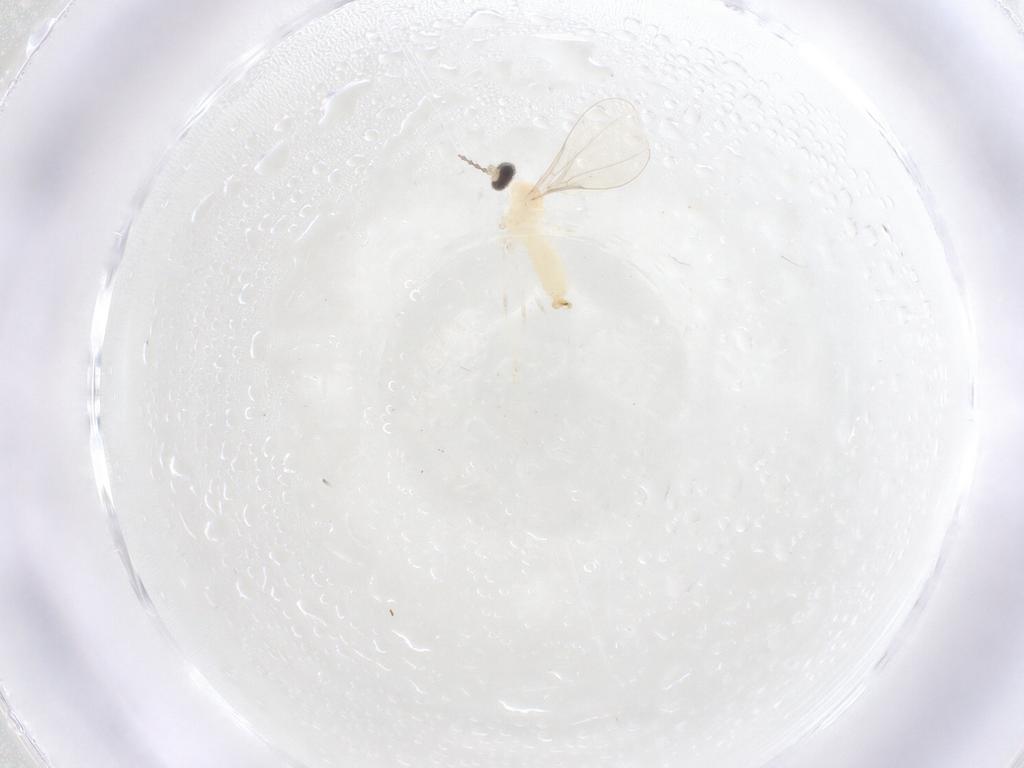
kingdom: Animalia
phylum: Arthropoda
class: Insecta
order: Diptera
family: Cecidomyiidae
